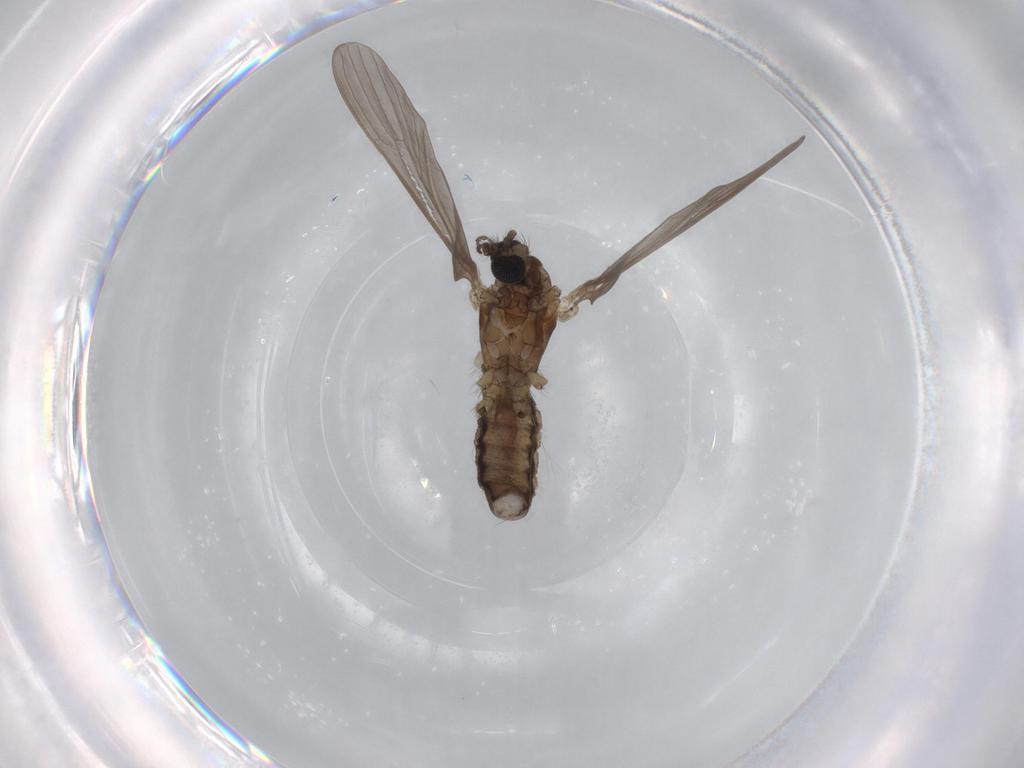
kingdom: Animalia
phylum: Arthropoda
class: Insecta
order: Diptera
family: Psychodidae
